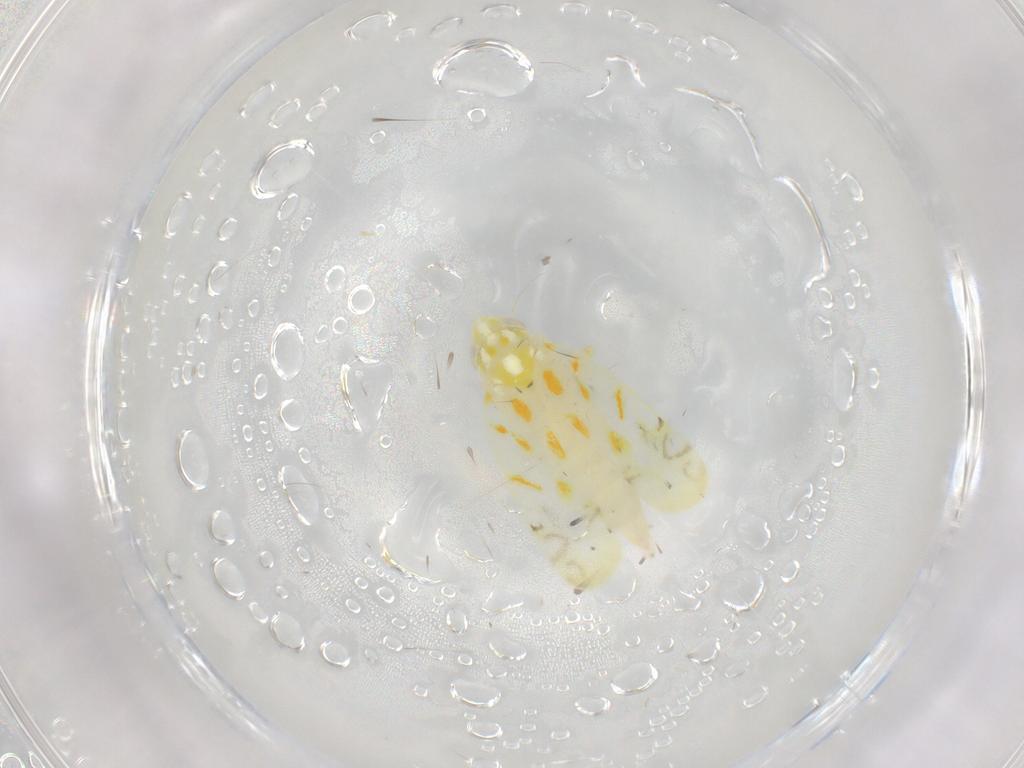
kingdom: Animalia
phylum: Arthropoda
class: Insecta
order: Hemiptera
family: Cicadellidae
